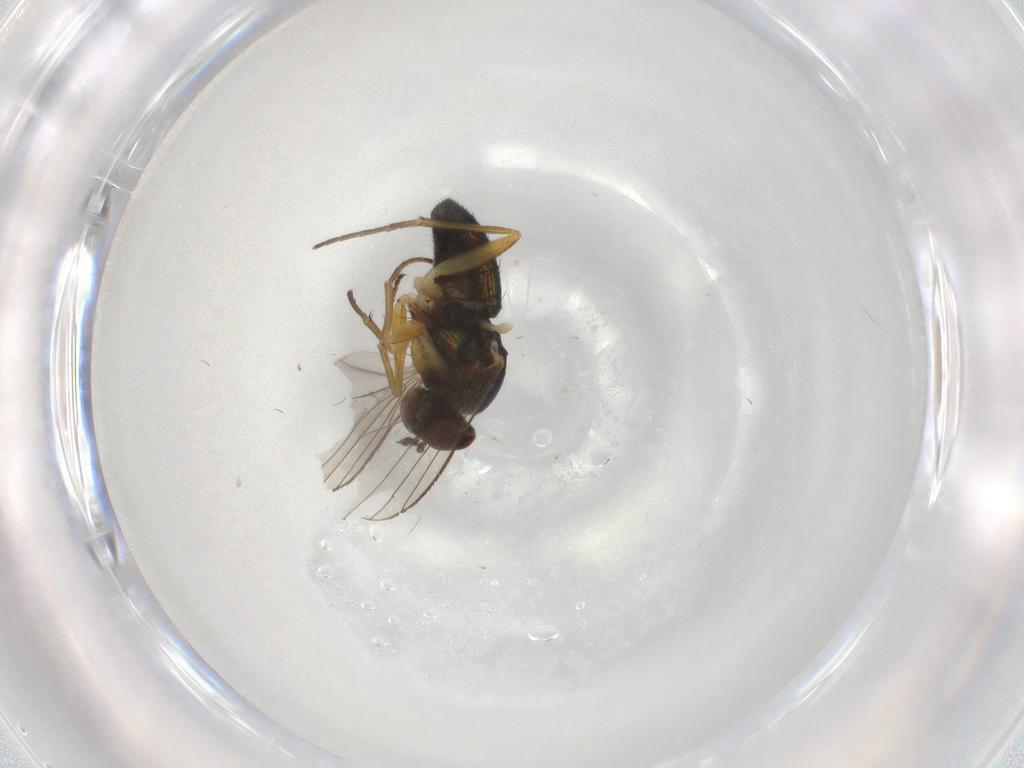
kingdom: Animalia
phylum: Arthropoda
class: Insecta
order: Diptera
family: Dolichopodidae
